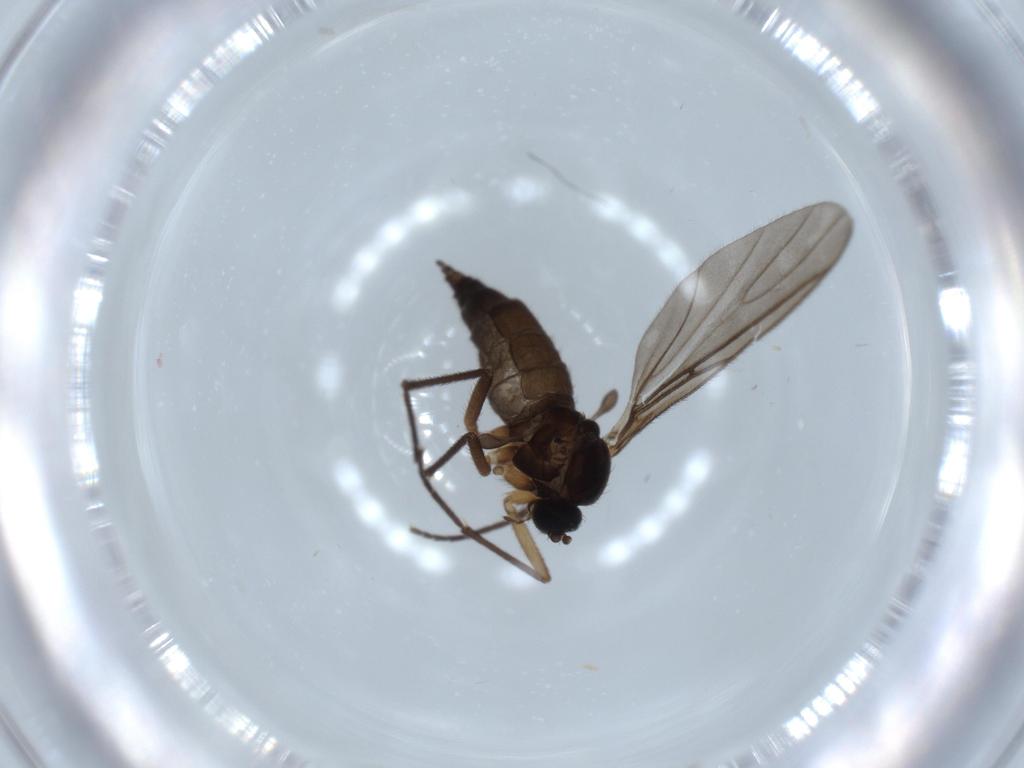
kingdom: Animalia
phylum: Arthropoda
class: Insecta
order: Diptera
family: Sciaridae
